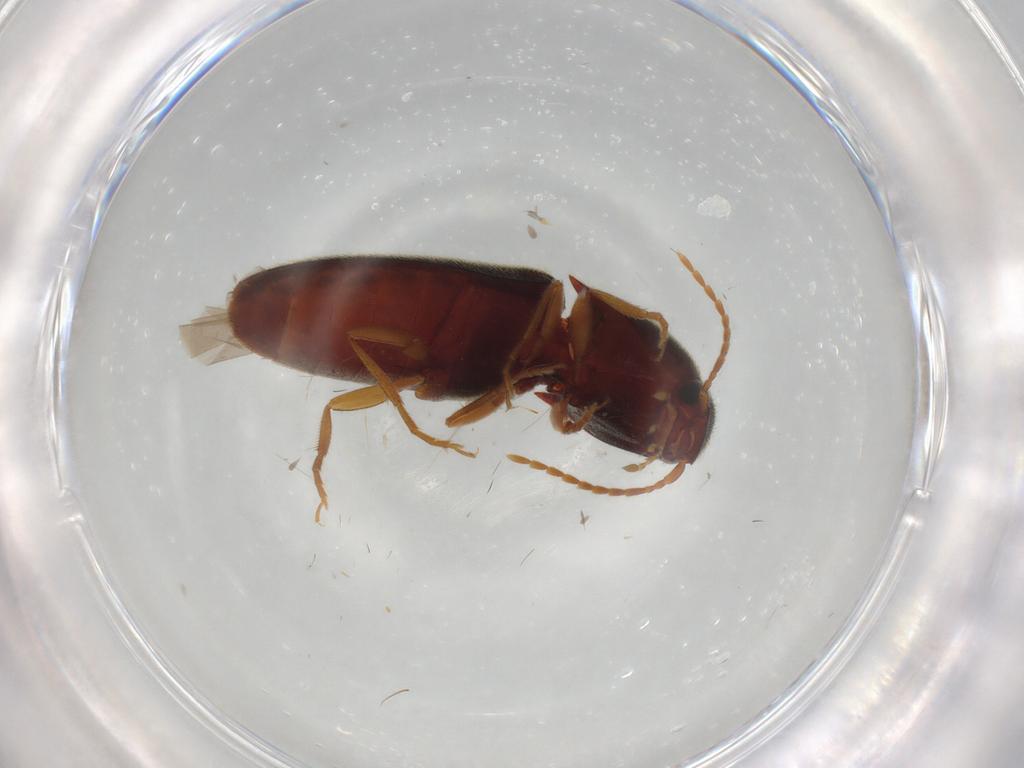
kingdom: Animalia
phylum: Arthropoda
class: Insecta
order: Coleoptera
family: Elateridae
